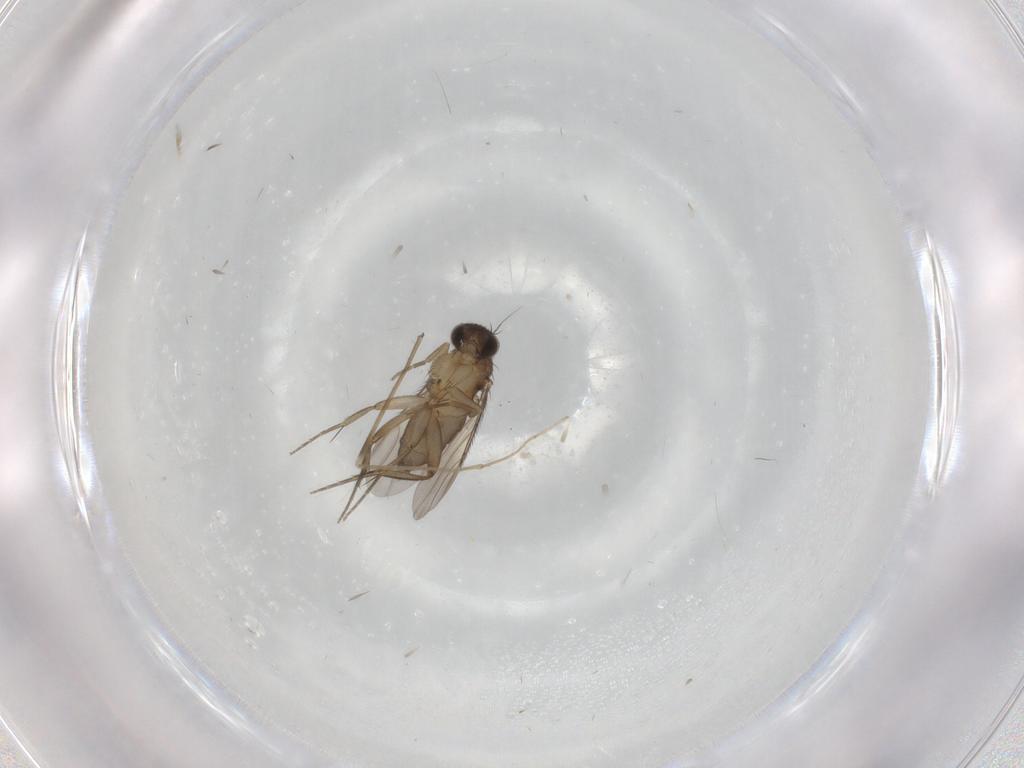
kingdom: Animalia
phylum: Arthropoda
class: Insecta
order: Diptera
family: Phoridae
